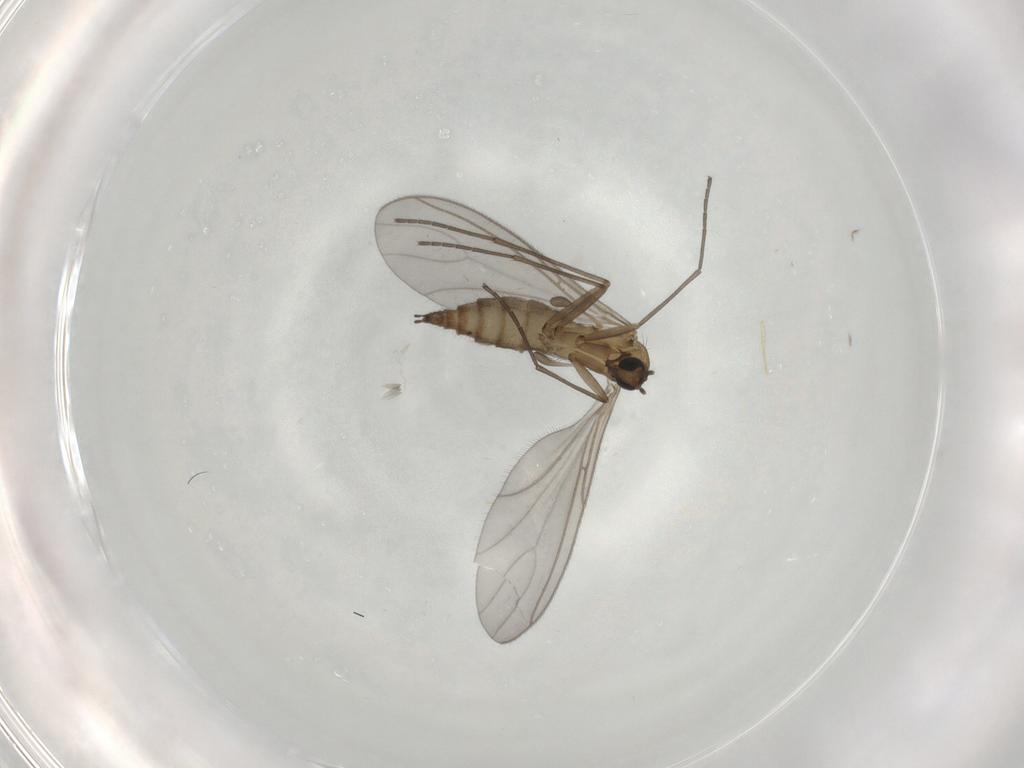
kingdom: Animalia
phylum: Arthropoda
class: Insecta
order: Diptera
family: Sciaridae
